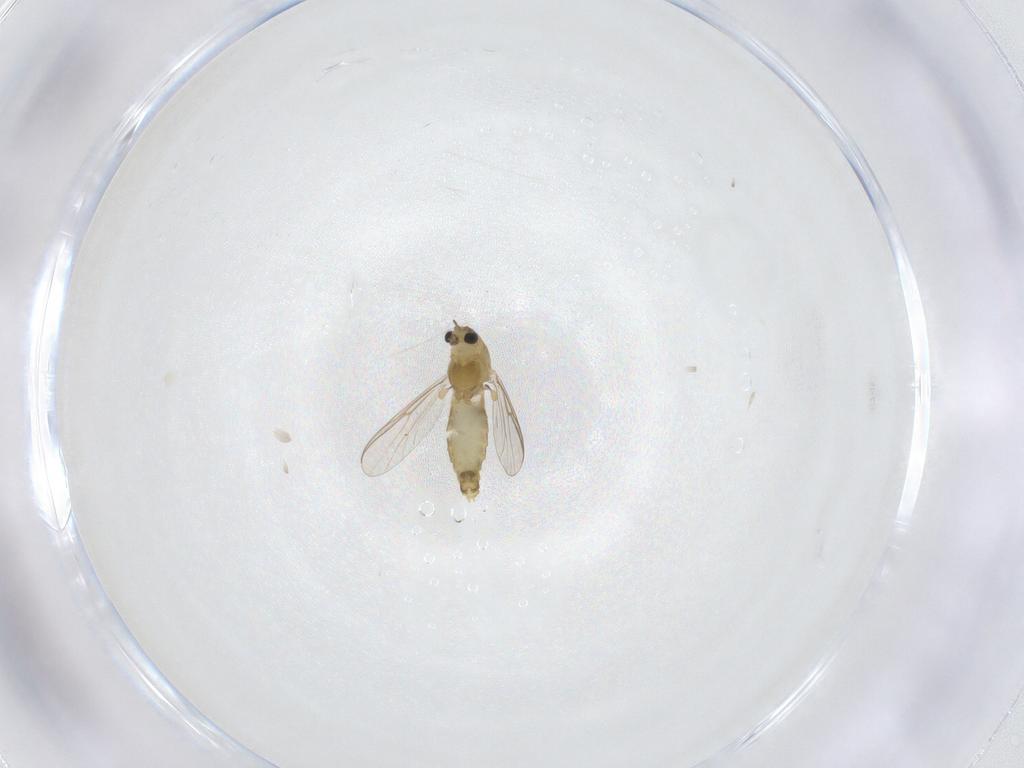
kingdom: Animalia
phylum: Arthropoda
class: Insecta
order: Diptera
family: Chironomidae
